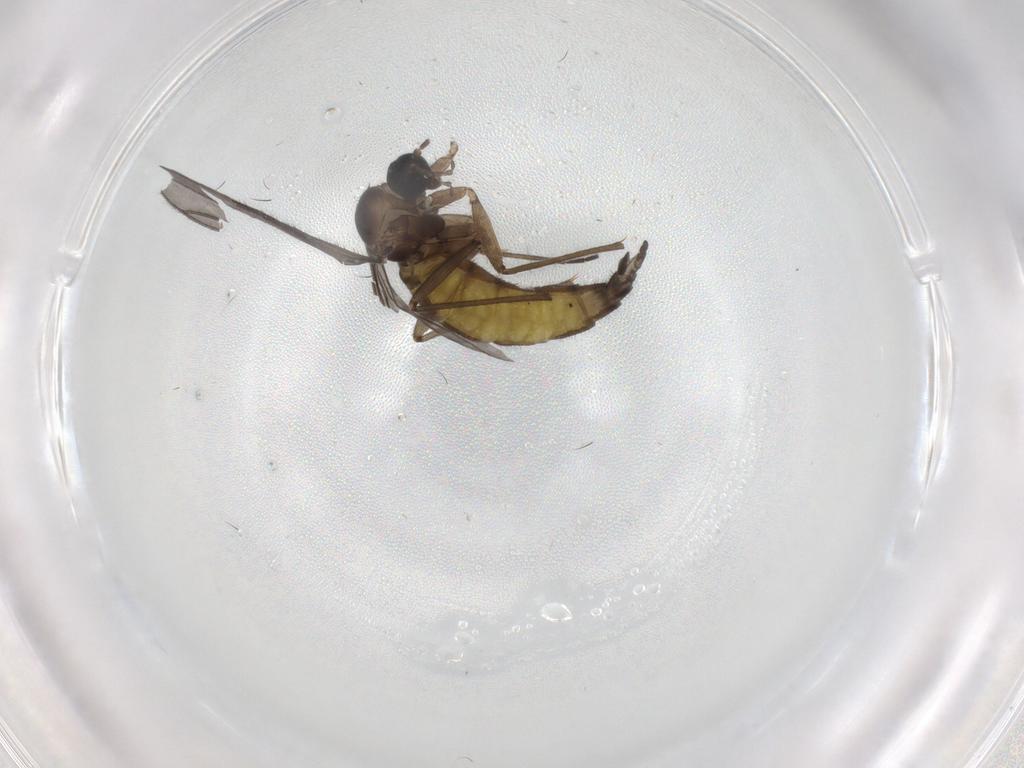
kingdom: Animalia
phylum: Arthropoda
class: Insecta
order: Diptera
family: Sciaridae
